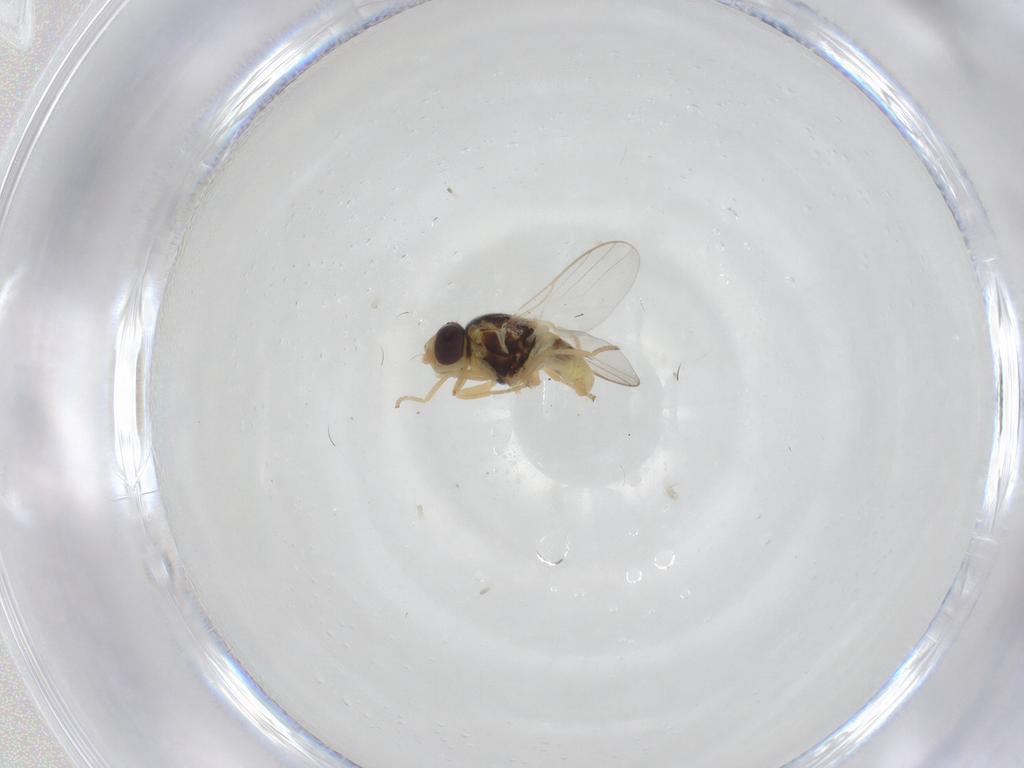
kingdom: Animalia
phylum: Arthropoda
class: Insecta
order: Diptera
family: Chloropidae
